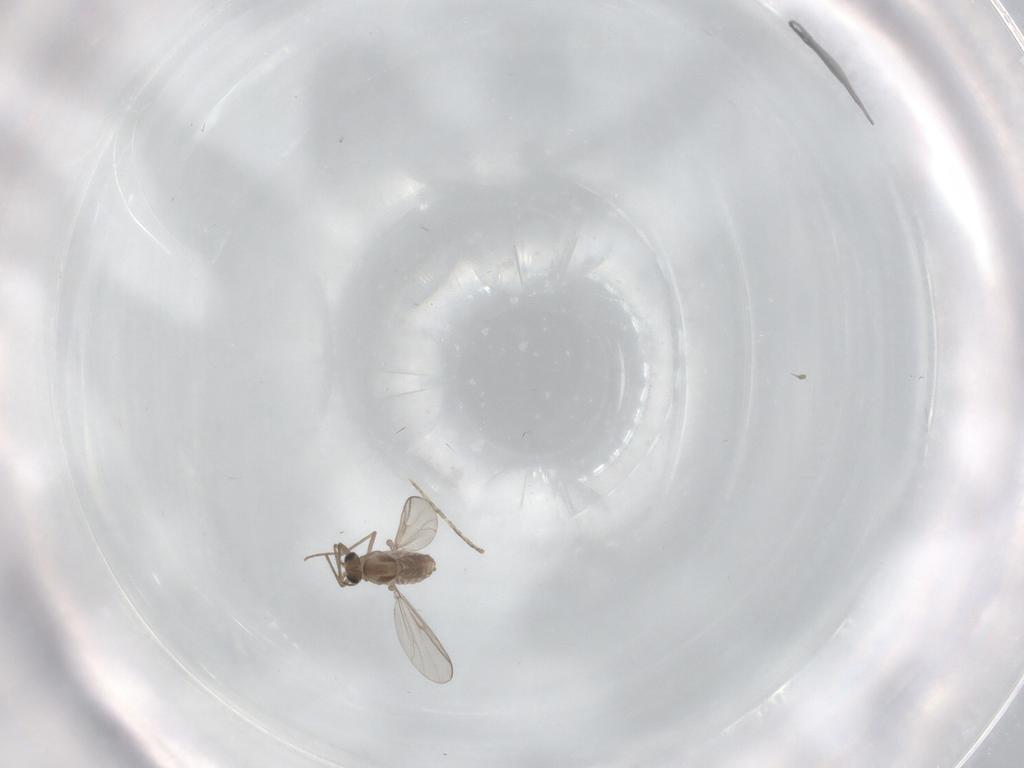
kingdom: Animalia
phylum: Arthropoda
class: Insecta
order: Diptera
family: Chironomidae
